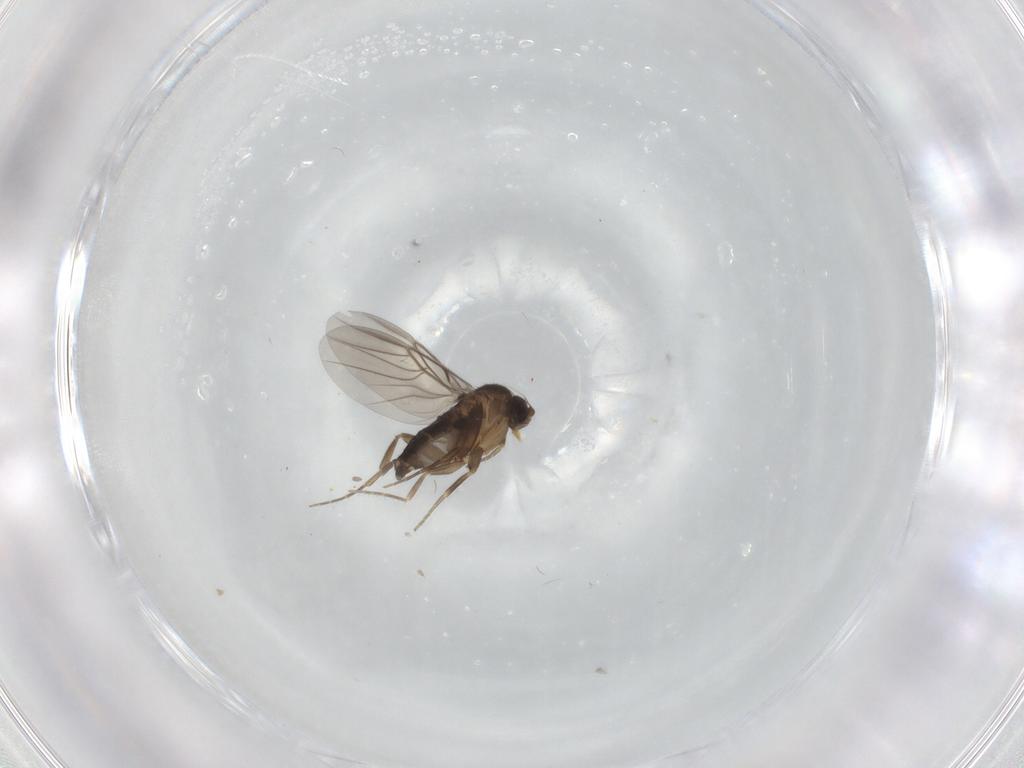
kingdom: Animalia
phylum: Arthropoda
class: Insecta
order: Diptera
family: Phoridae
